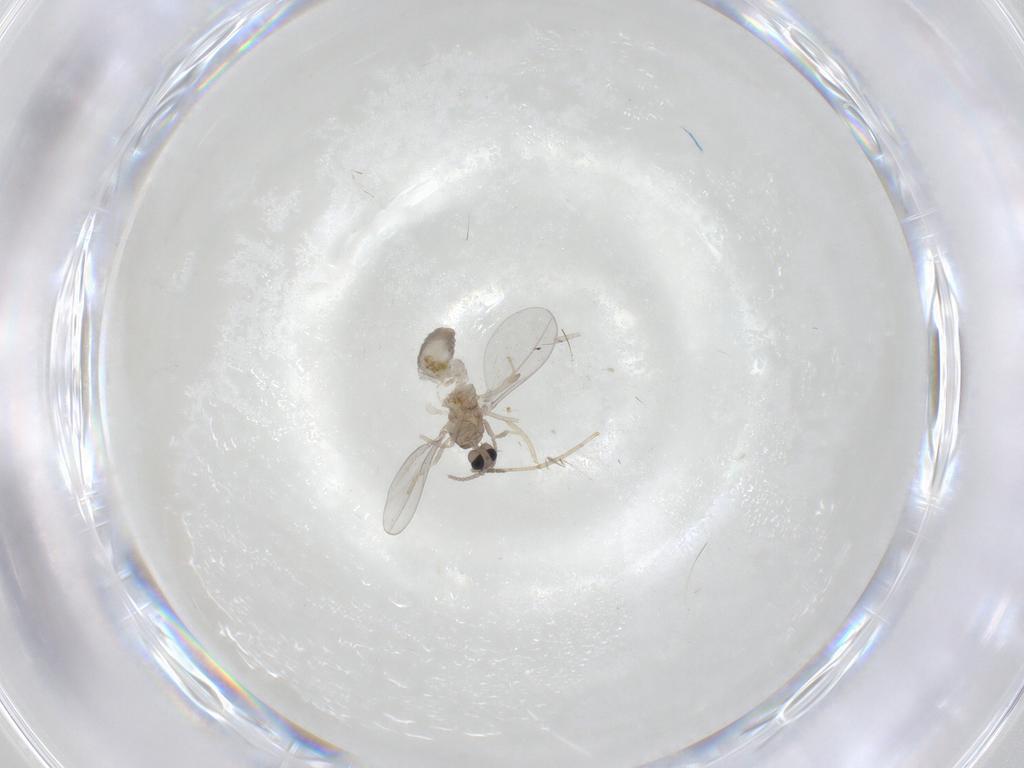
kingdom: Animalia
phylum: Arthropoda
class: Insecta
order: Diptera
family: Cecidomyiidae
